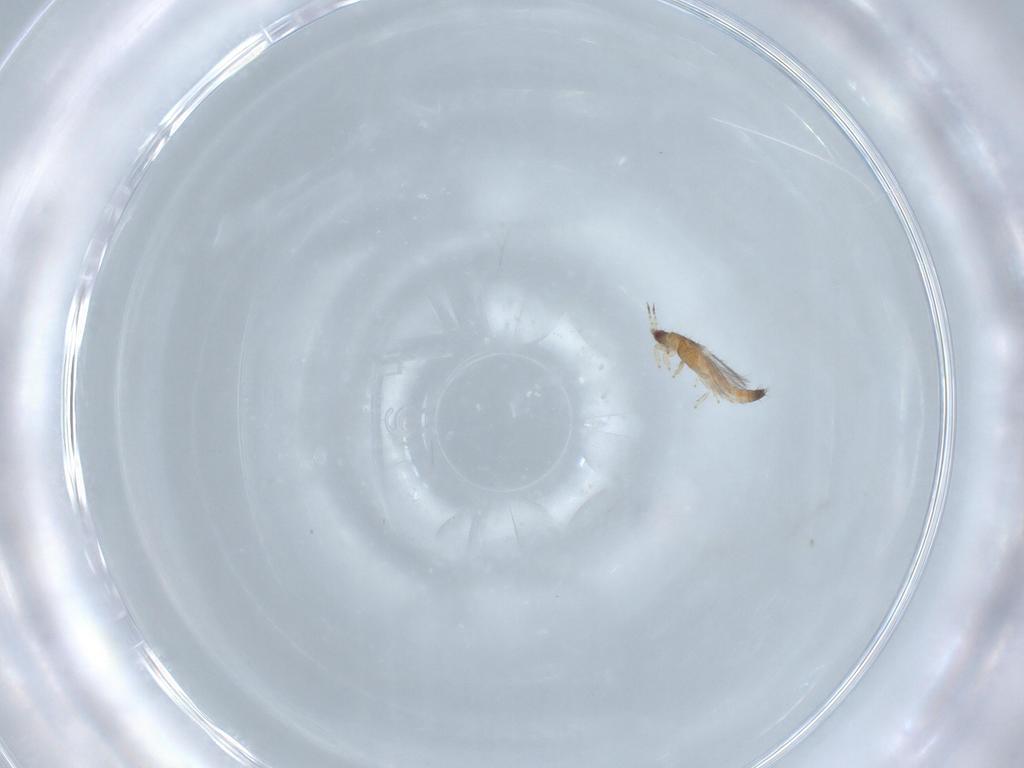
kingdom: Animalia
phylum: Arthropoda
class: Insecta
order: Thysanoptera
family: Thripidae
